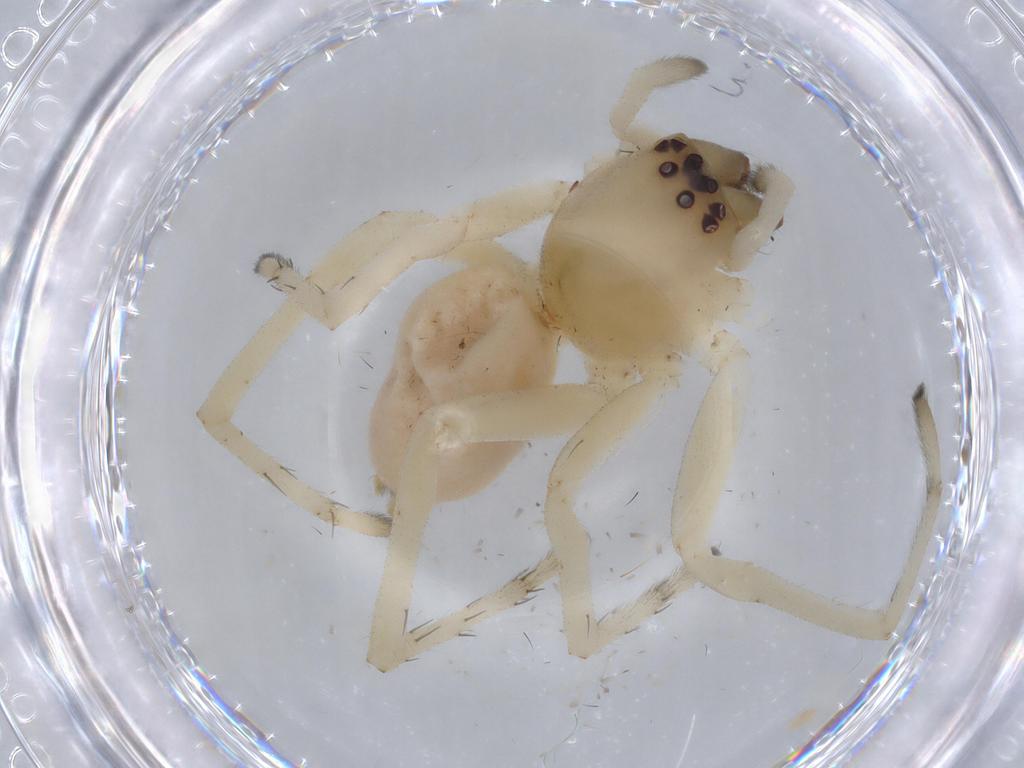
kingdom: Animalia
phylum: Arthropoda
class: Arachnida
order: Araneae
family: Cheiracanthiidae
